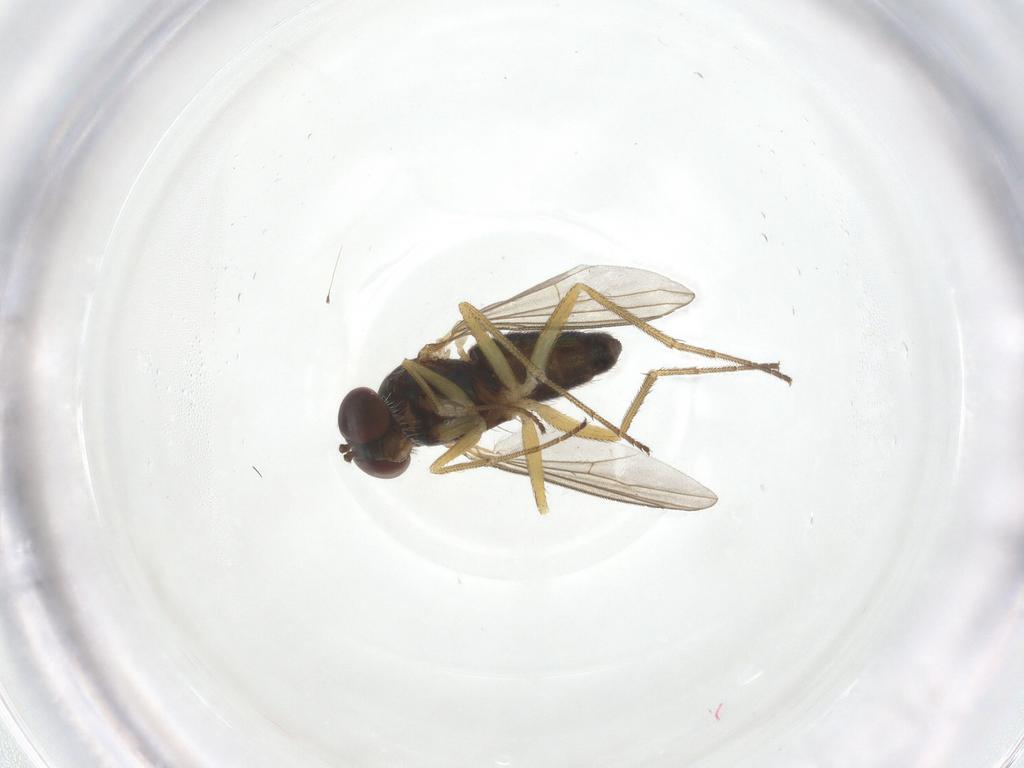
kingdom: Animalia
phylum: Arthropoda
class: Insecta
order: Diptera
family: Dolichopodidae
